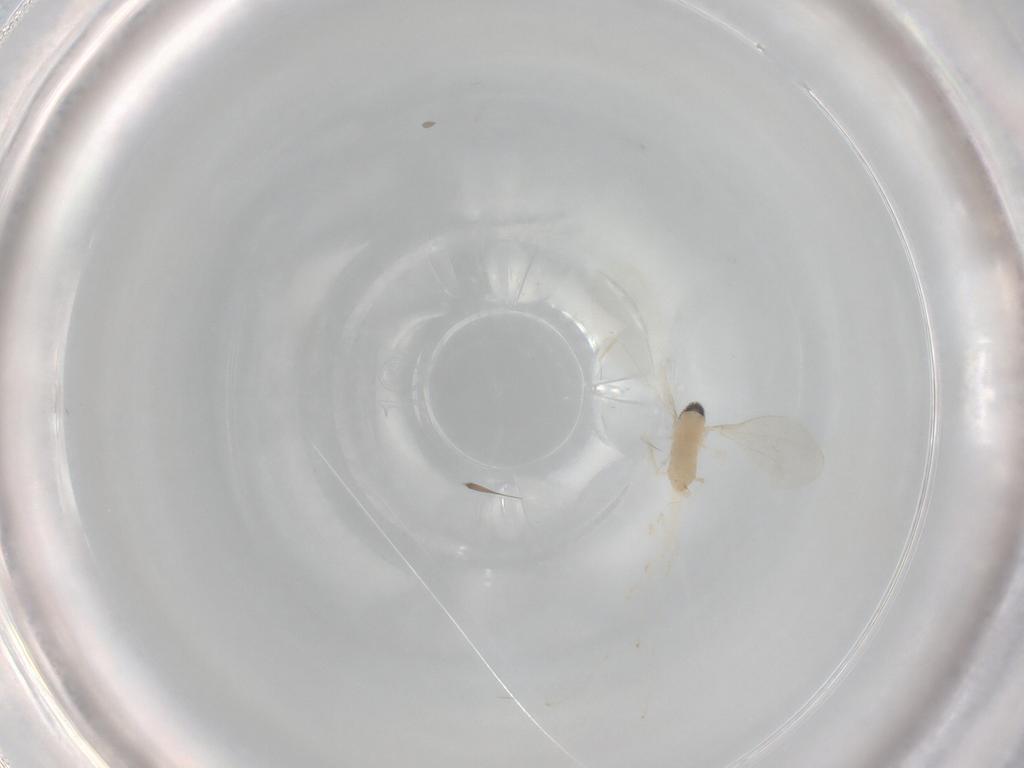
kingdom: Animalia
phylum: Arthropoda
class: Insecta
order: Diptera
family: Cecidomyiidae
